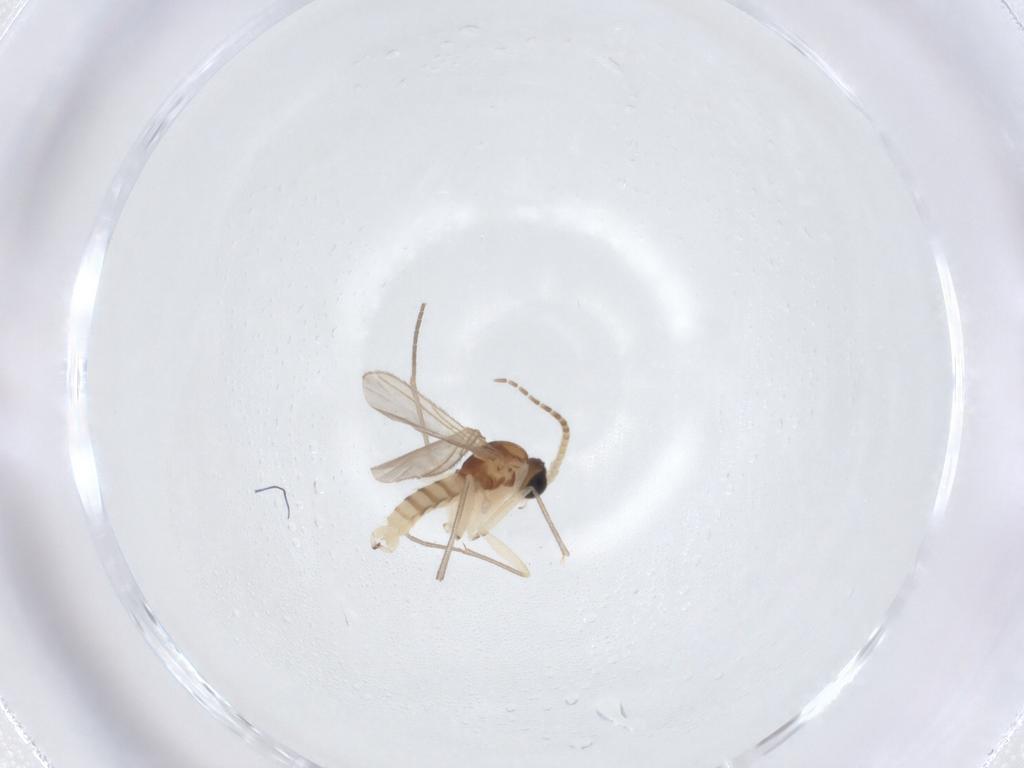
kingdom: Animalia
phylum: Arthropoda
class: Insecta
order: Diptera
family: Sciaridae
